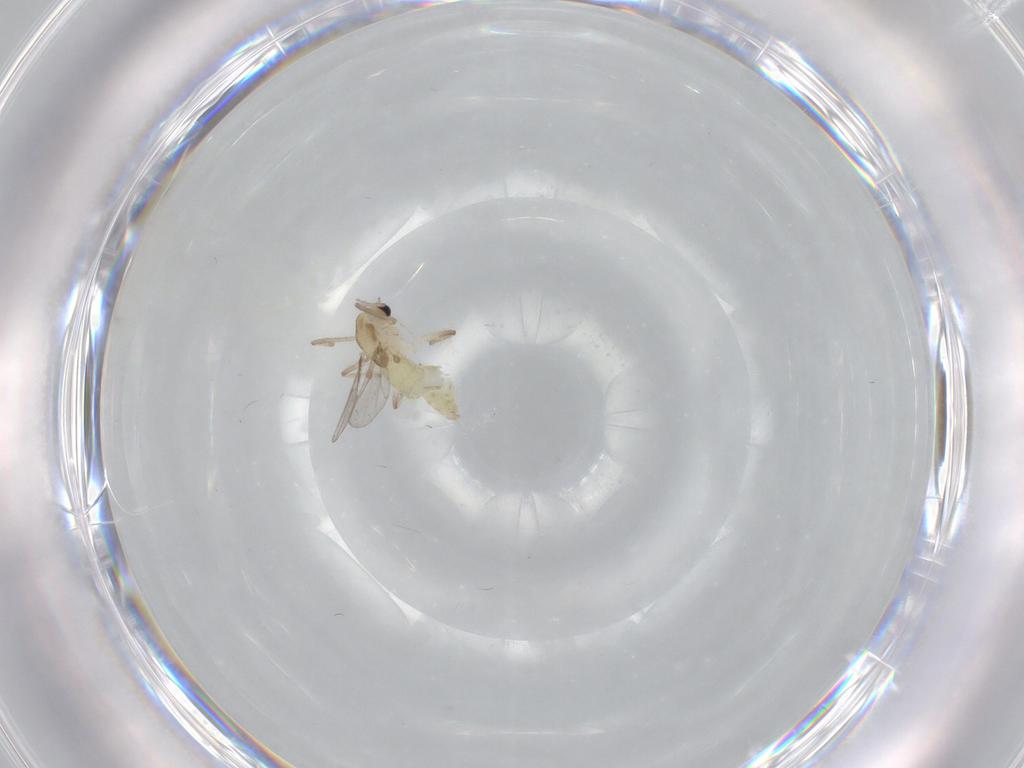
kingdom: Animalia
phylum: Arthropoda
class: Insecta
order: Diptera
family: Chironomidae
